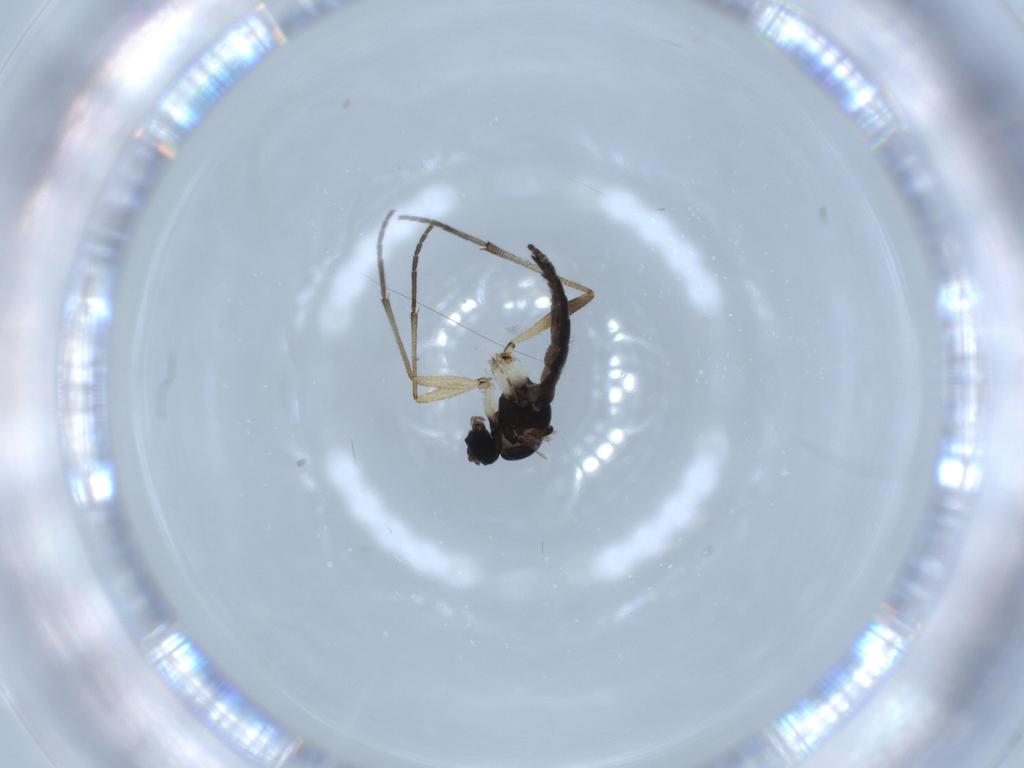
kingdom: Animalia
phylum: Arthropoda
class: Insecta
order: Diptera
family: Sciaridae
